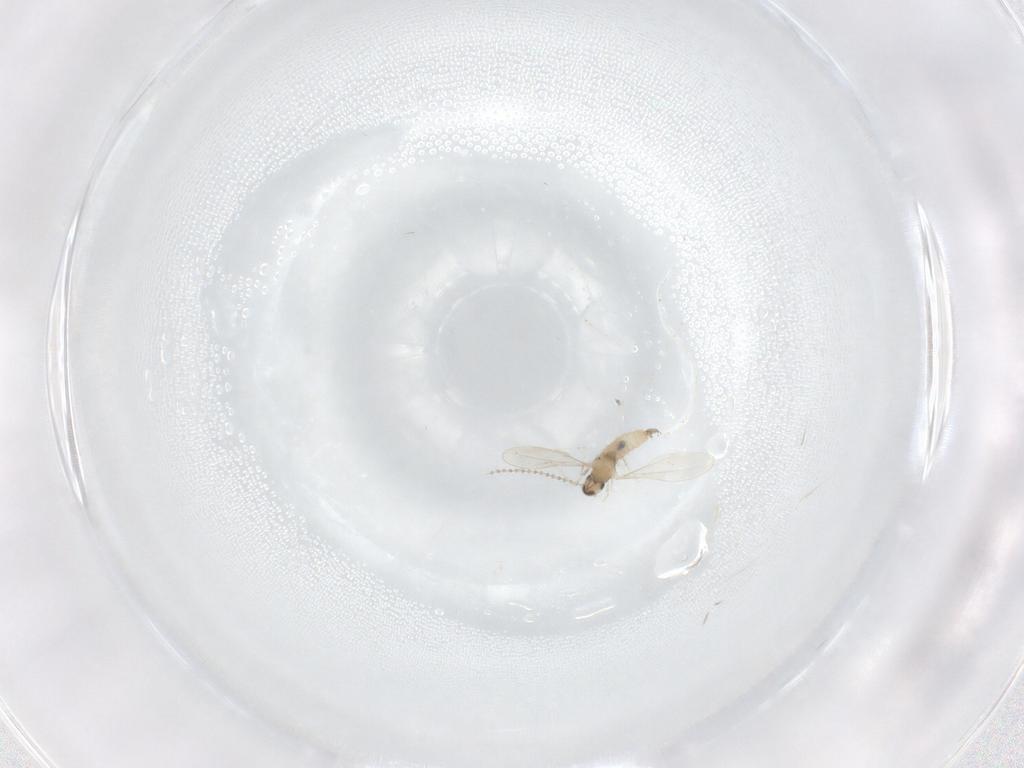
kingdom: Animalia
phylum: Arthropoda
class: Insecta
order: Diptera
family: Cecidomyiidae
